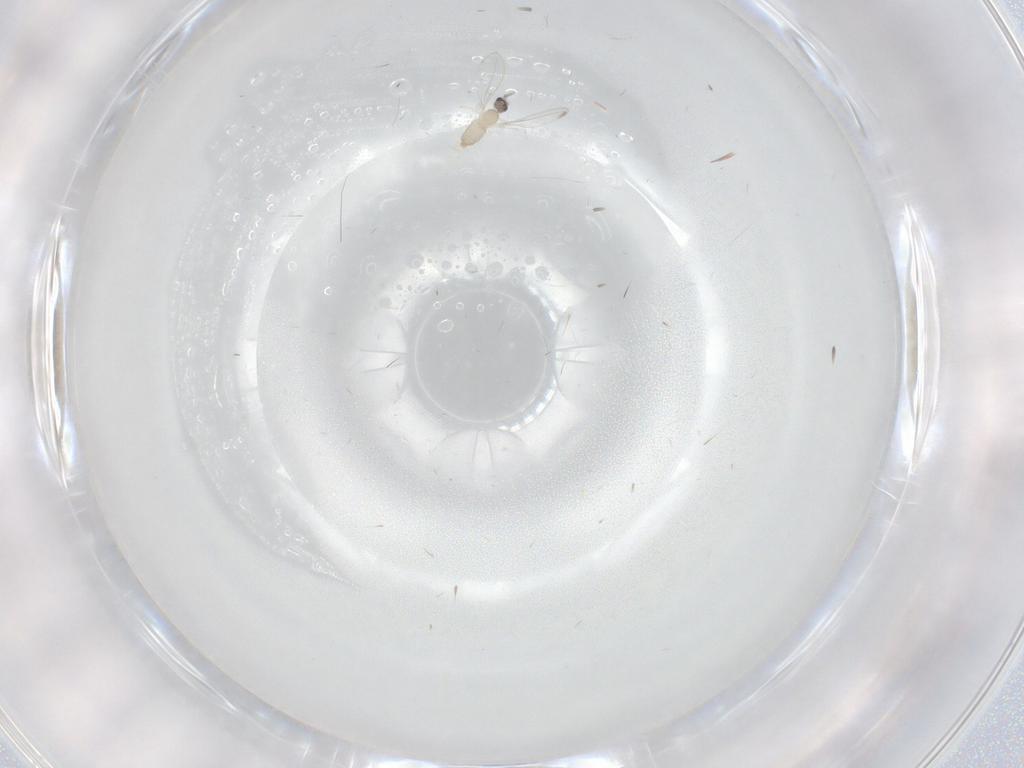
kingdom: Animalia
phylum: Arthropoda
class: Insecta
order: Diptera
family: Cecidomyiidae
